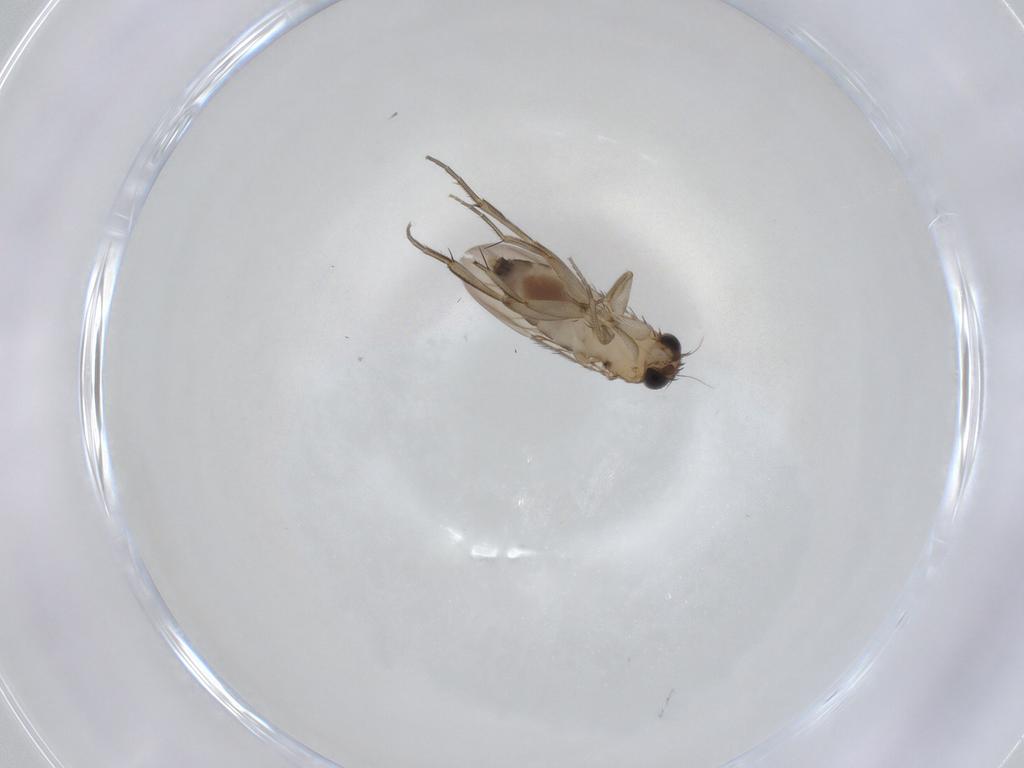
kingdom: Animalia
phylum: Arthropoda
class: Insecta
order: Diptera
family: Phoridae
